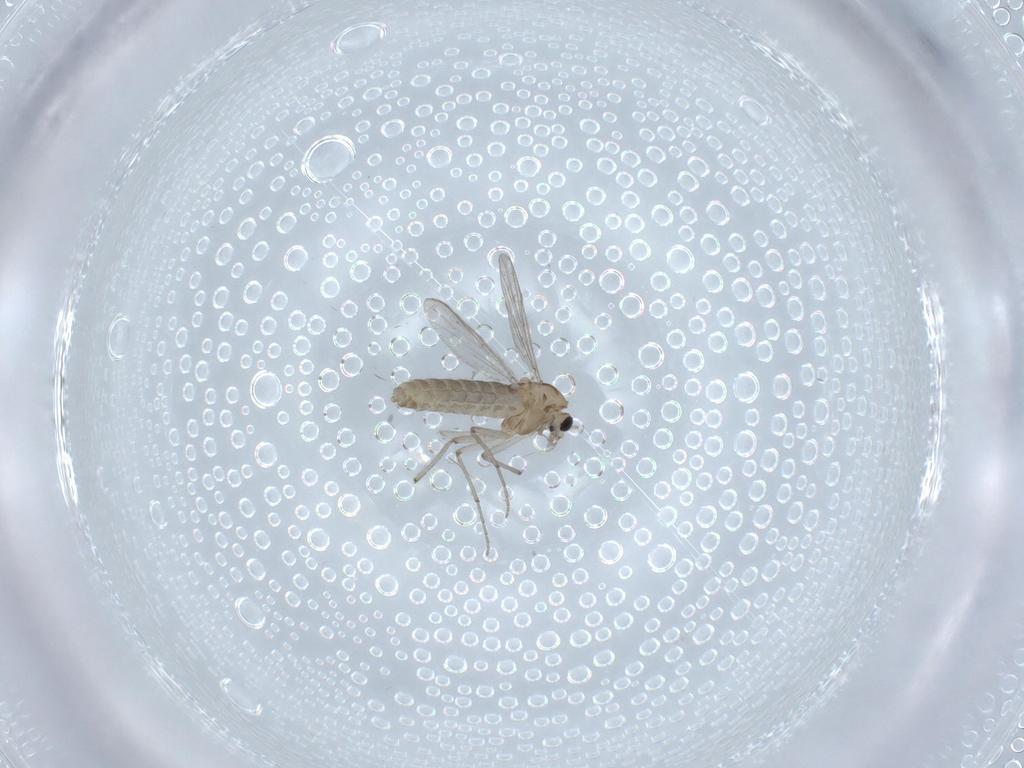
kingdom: Animalia
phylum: Arthropoda
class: Insecta
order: Diptera
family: Chironomidae
